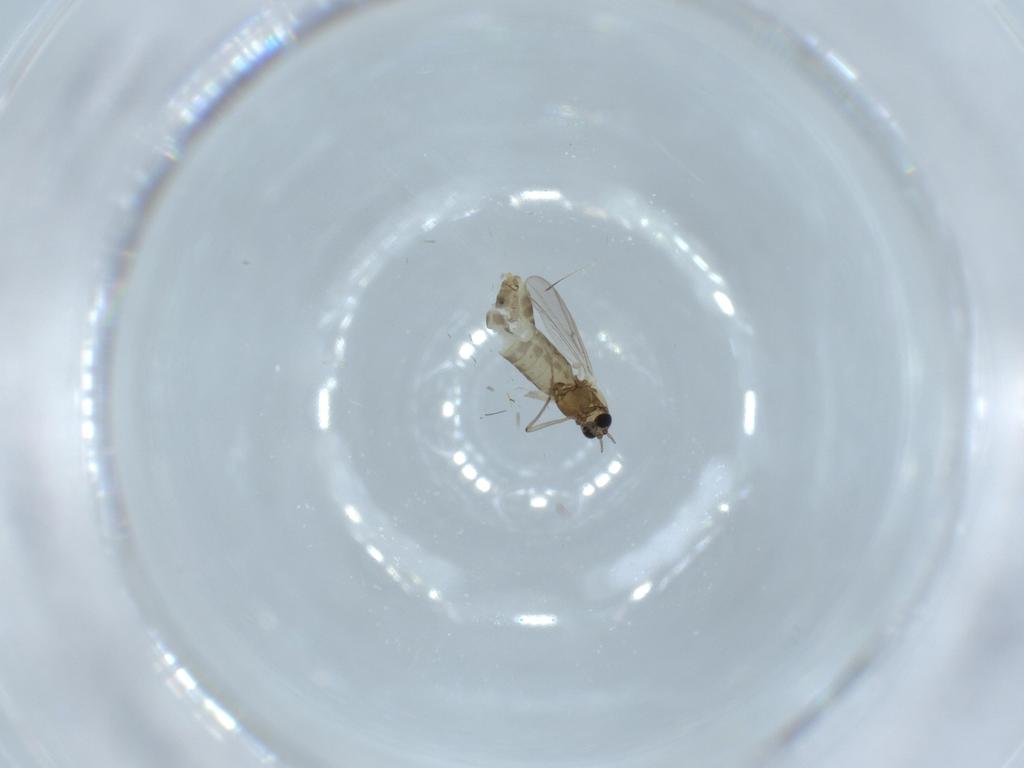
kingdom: Animalia
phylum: Arthropoda
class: Insecta
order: Diptera
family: Chironomidae
